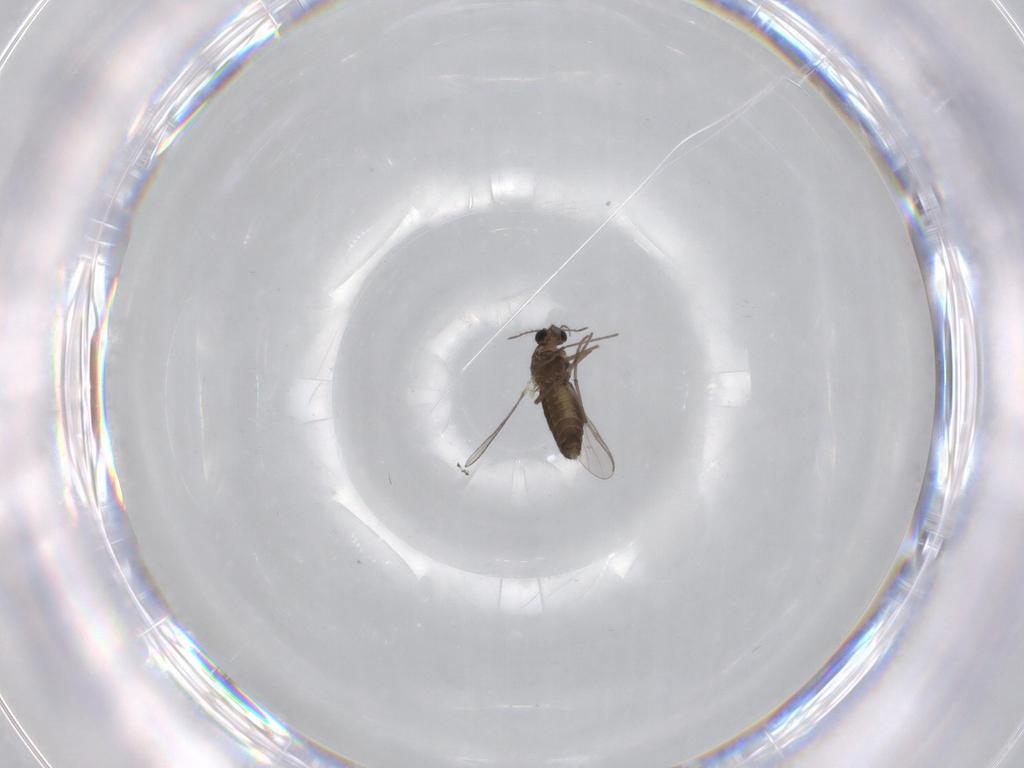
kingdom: Animalia
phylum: Arthropoda
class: Insecta
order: Diptera
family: Chironomidae
